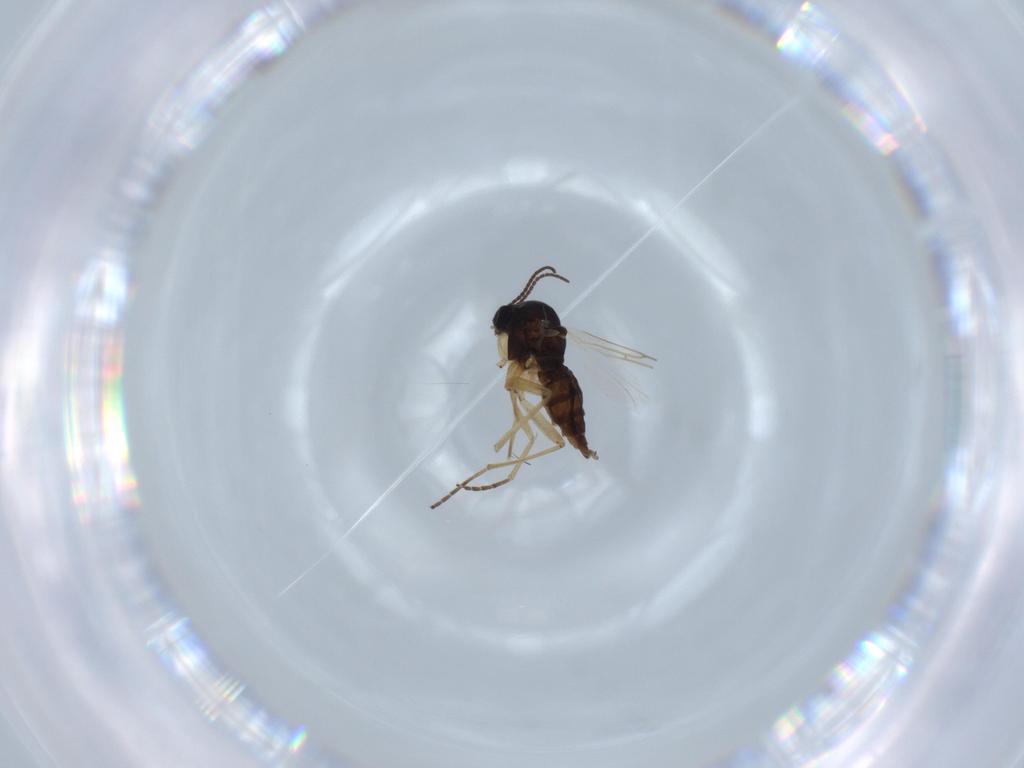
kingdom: Animalia
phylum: Arthropoda
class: Insecta
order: Diptera
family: Sciaridae
